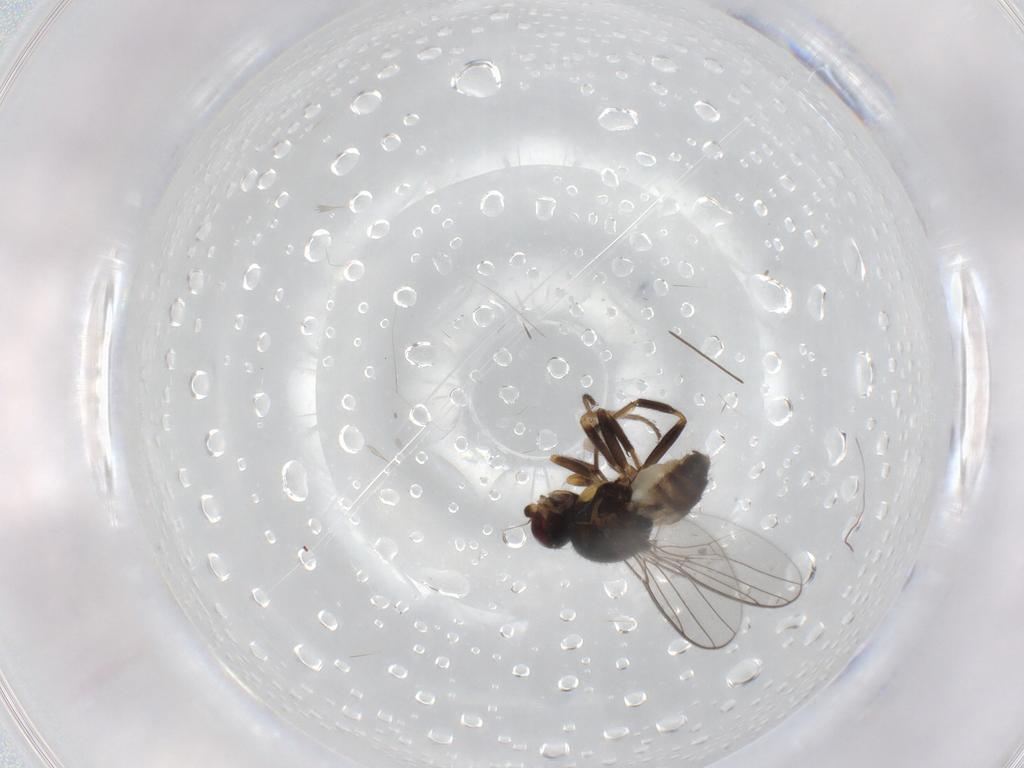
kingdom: Animalia
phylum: Arthropoda
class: Insecta
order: Diptera
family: Chloropidae
